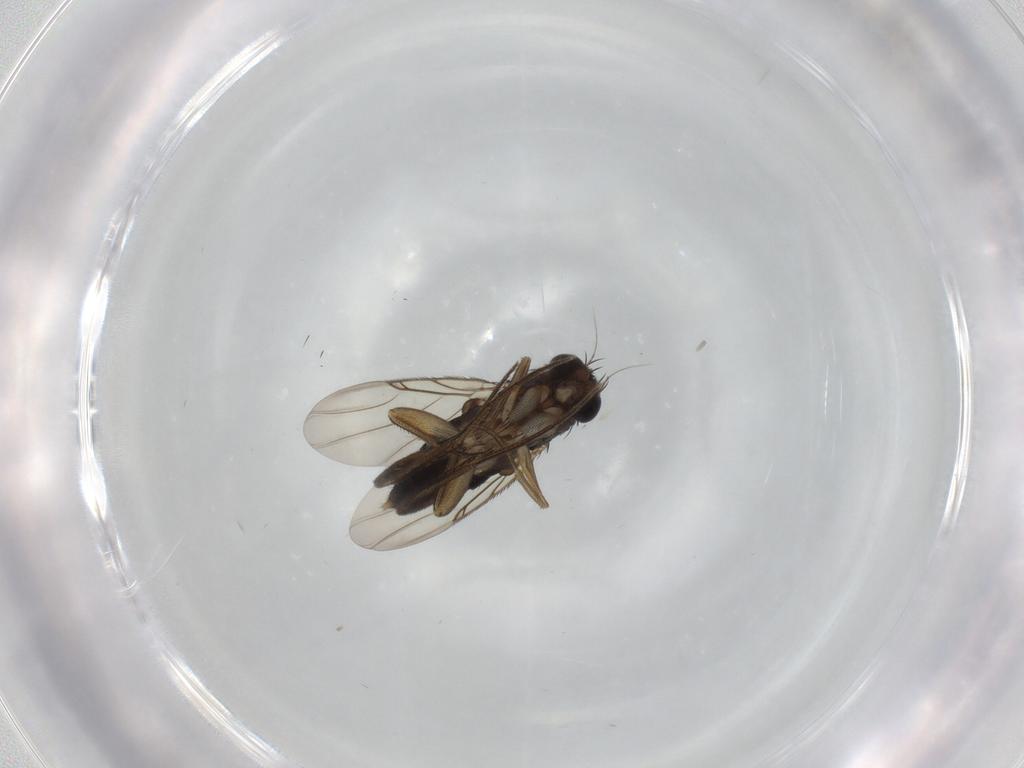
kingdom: Animalia
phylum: Arthropoda
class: Insecta
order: Diptera
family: Phoridae
